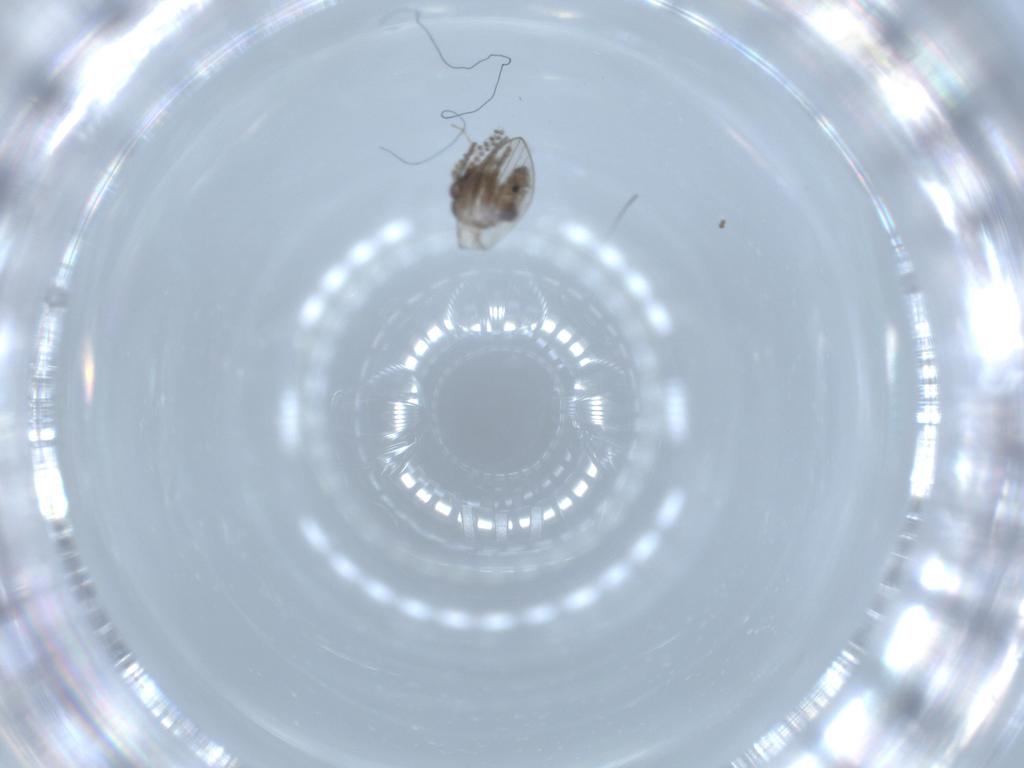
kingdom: Animalia
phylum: Arthropoda
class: Insecta
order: Diptera
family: Psychodidae
